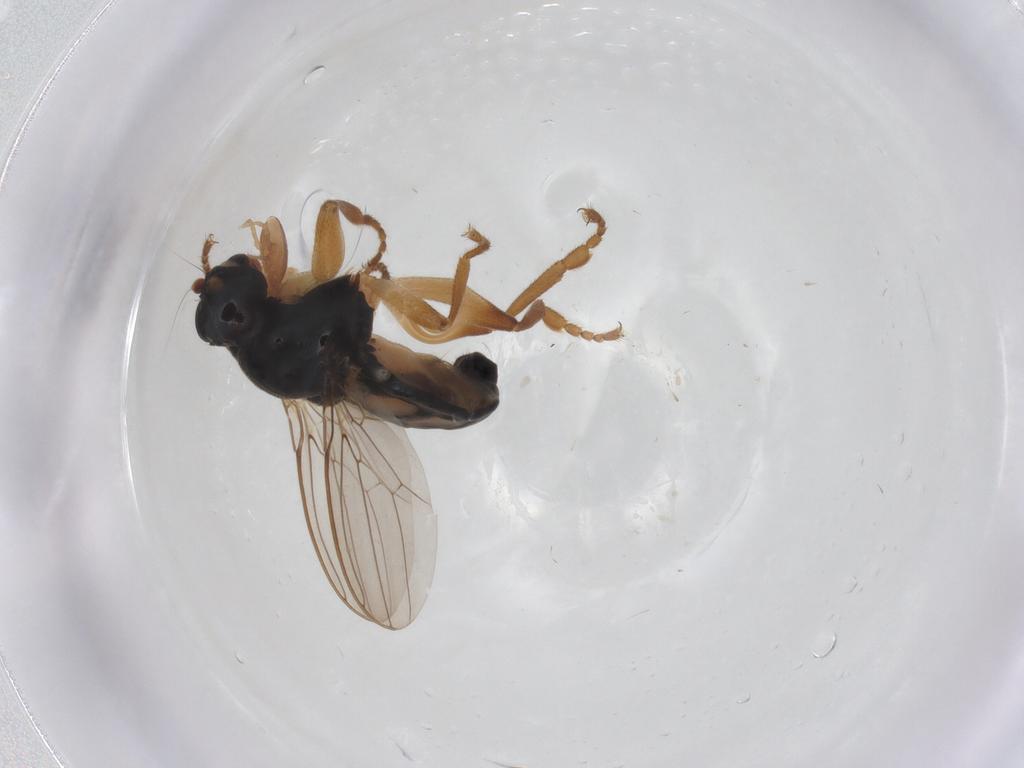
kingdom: Animalia
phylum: Arthropoda
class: Insecta
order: Diptera
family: Sphaeroceridae
